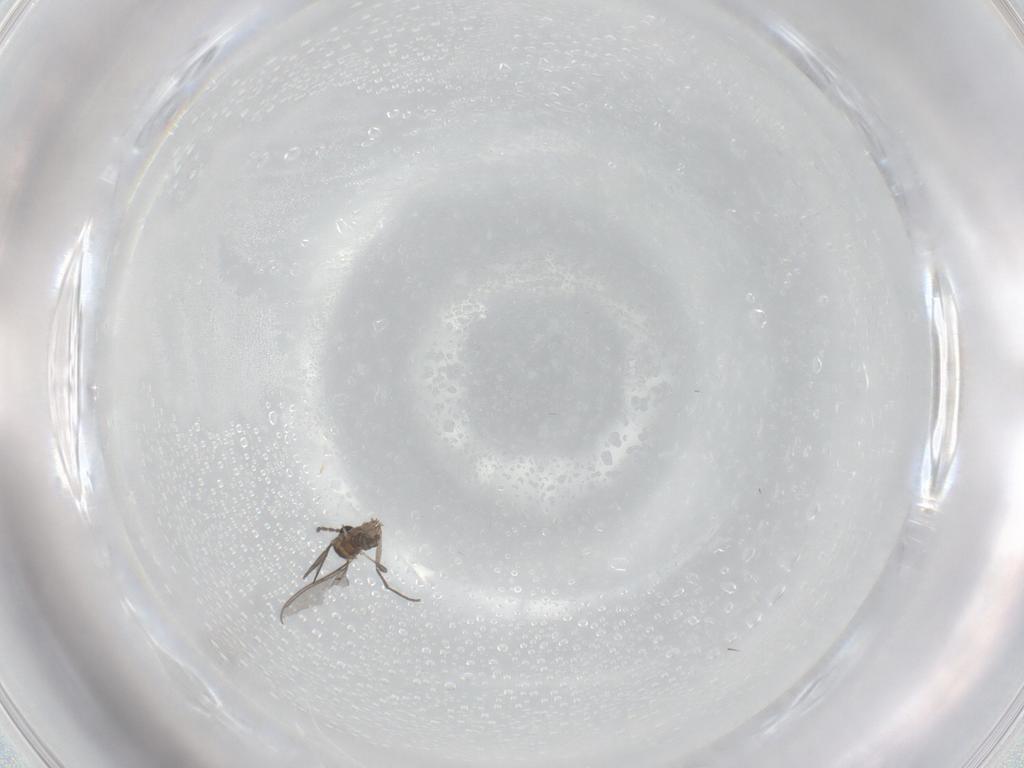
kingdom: Animalia
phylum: Arthropoda
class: Insecta
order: Diptera
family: Sciaridae
